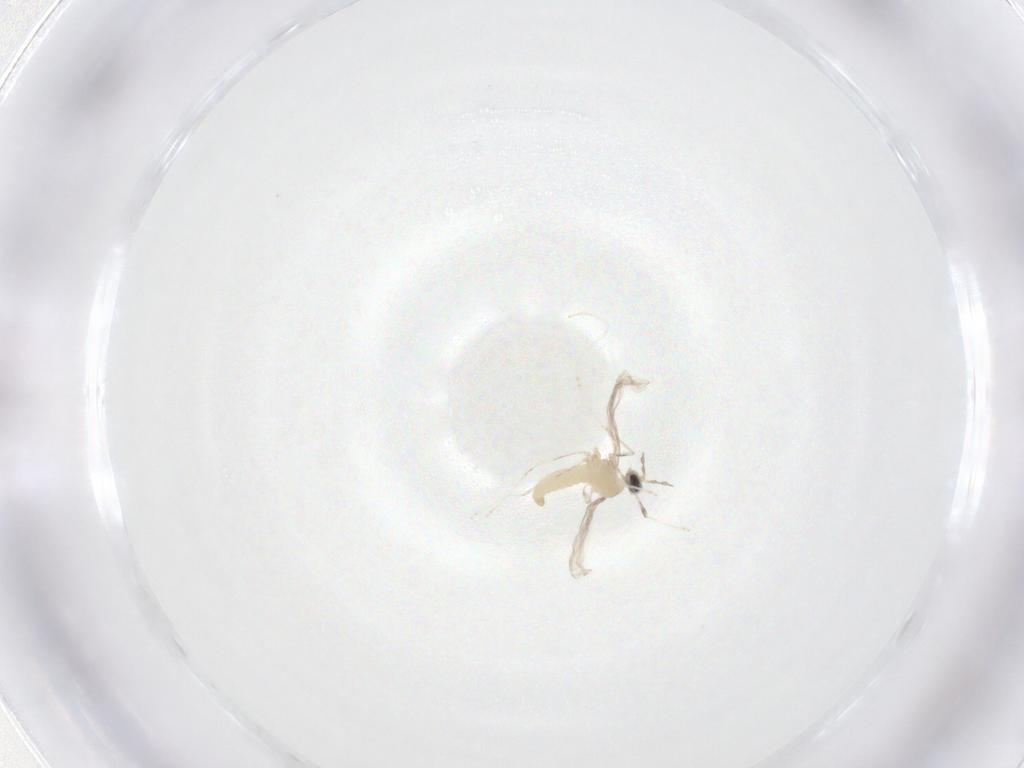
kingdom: Animalia
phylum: Arthropoda
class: Insecta
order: Diptera
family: Cecidomyiidae
